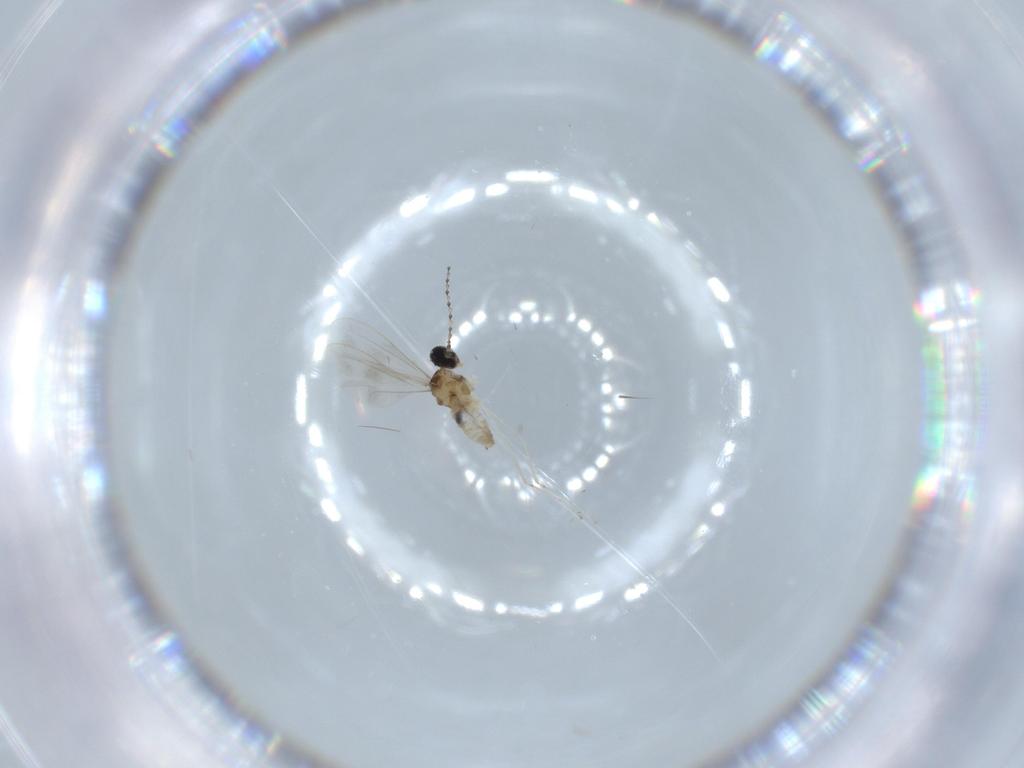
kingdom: Animalia
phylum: Arthropoda
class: Insecta
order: Diptera
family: Cecidomyiidae
